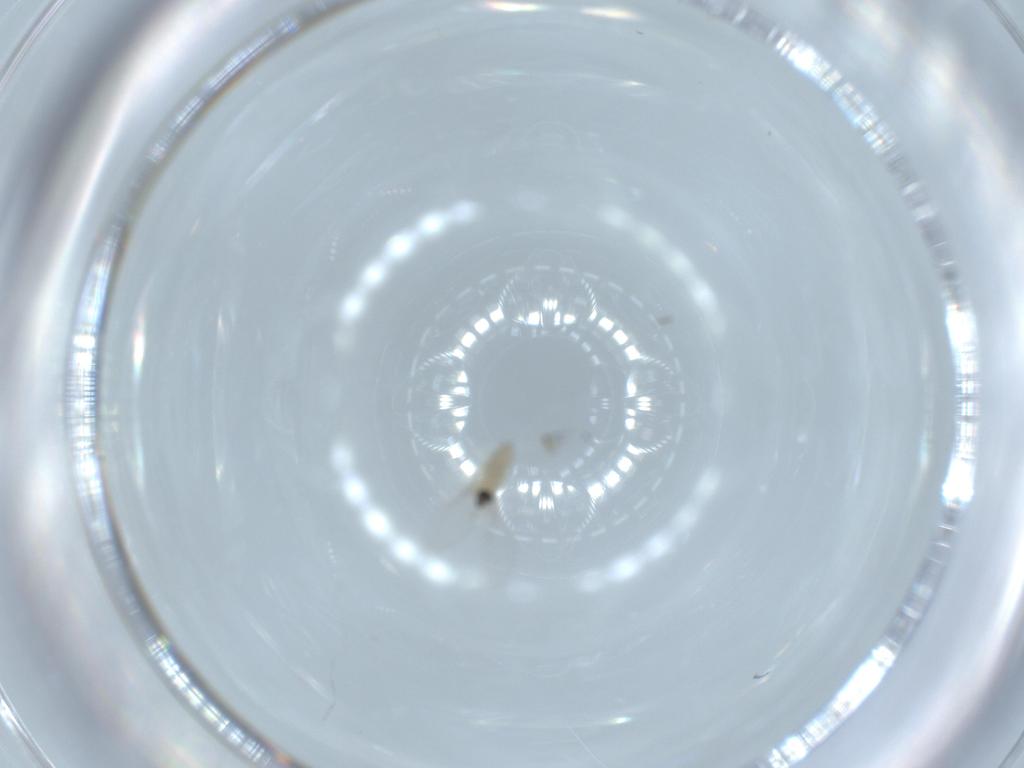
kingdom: Animalia
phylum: Arthropoda
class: Insecta
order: Diptera
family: Cecidomyiidae
